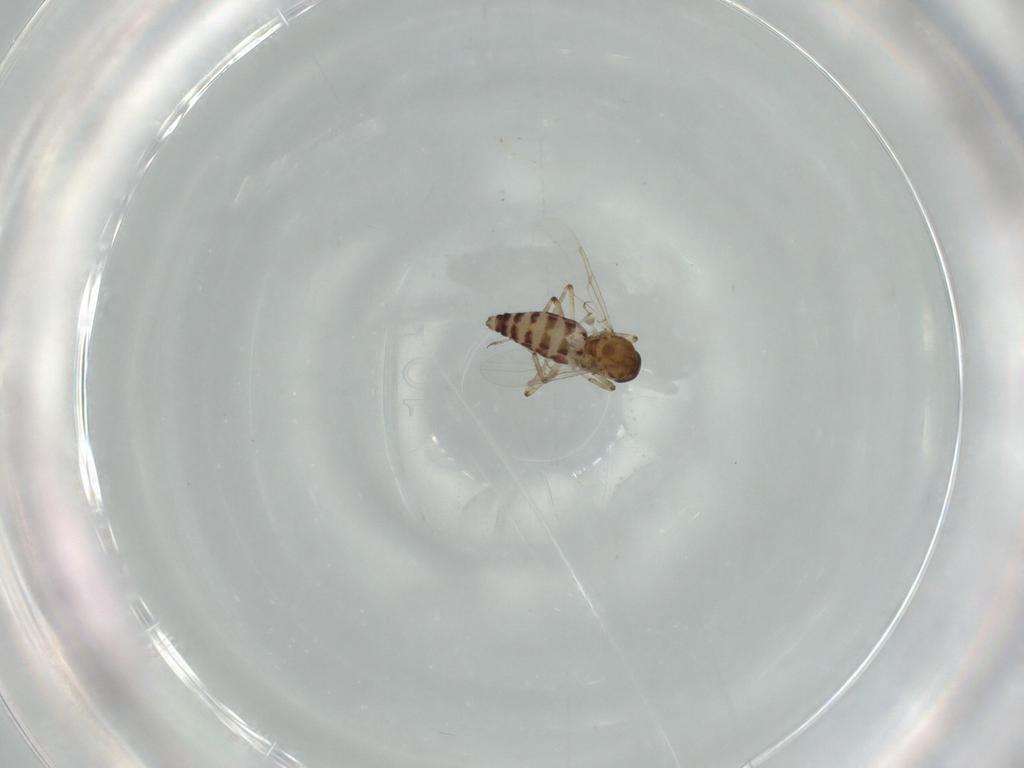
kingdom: Animalia
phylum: Arthropoda
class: Insecta
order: Diptera
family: Ceratopogonidae
